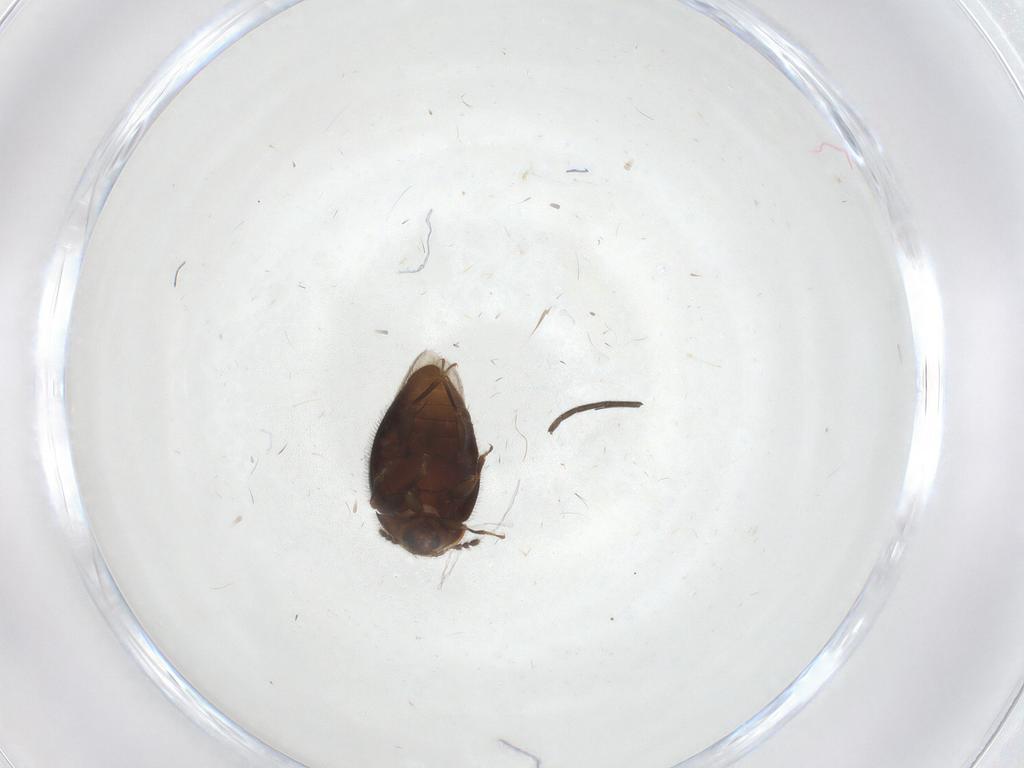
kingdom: Animalia
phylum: Arthropoda
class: Insecta
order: Coleoptera
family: Corylophidae
